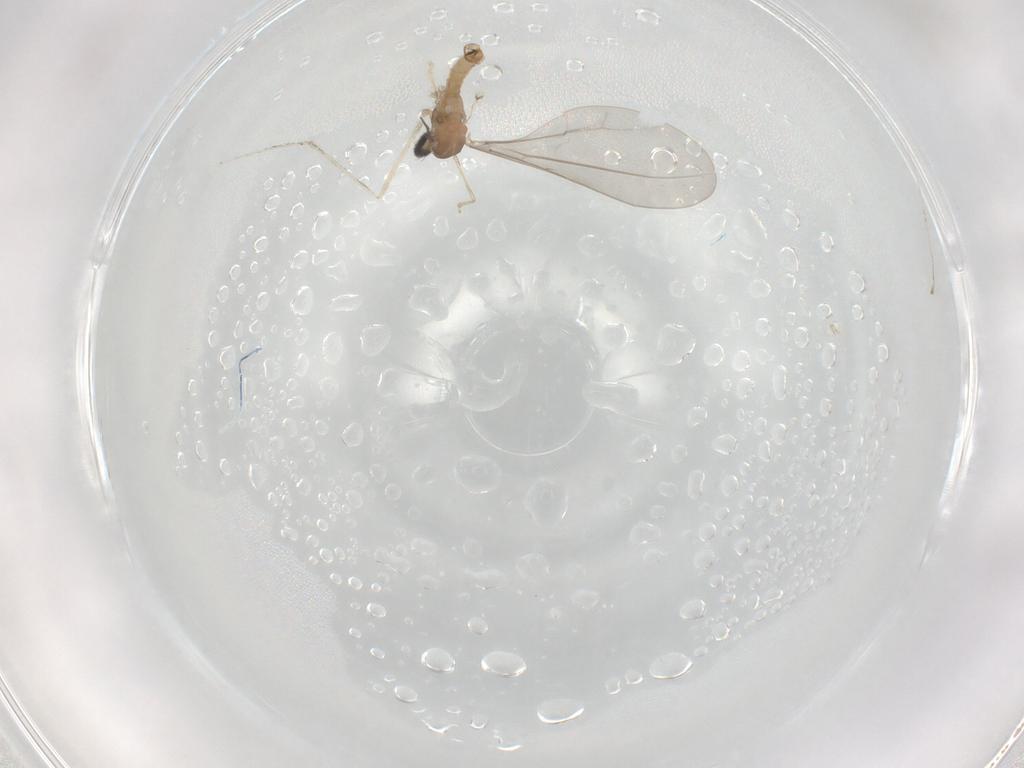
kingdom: Animalia
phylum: Arthropoda
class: Insecta
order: Diptera
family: Cecidomyiidae
